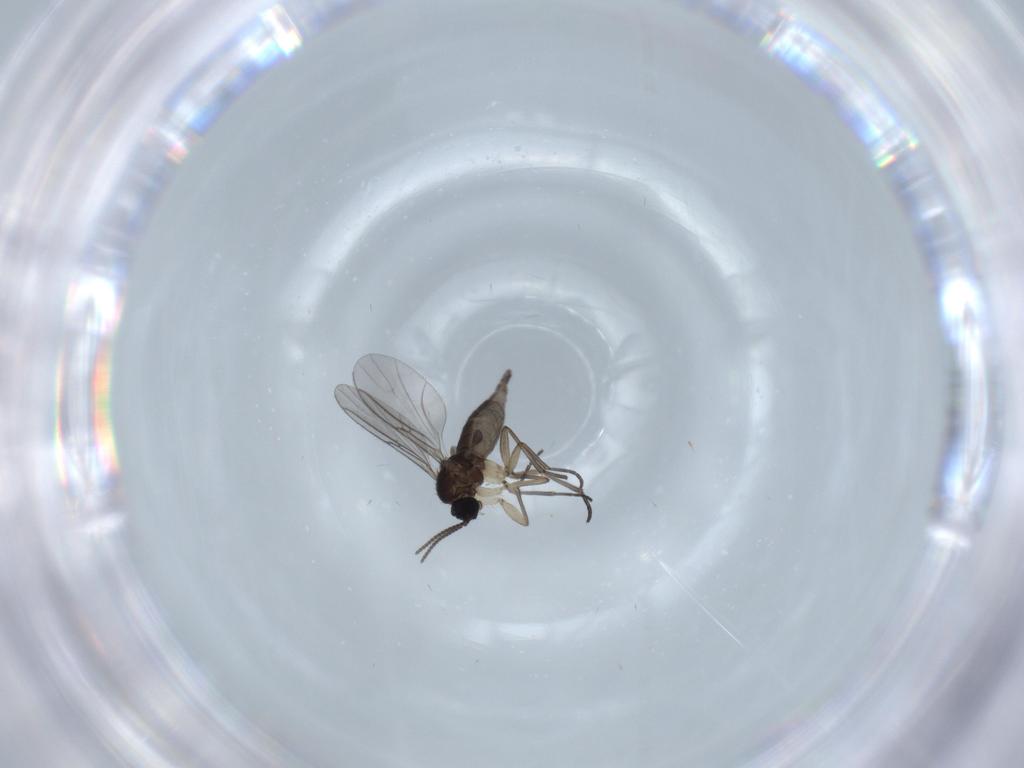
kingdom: Animalia
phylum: Arthropoda
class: Insecta
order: Diptera
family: Sciaridae
